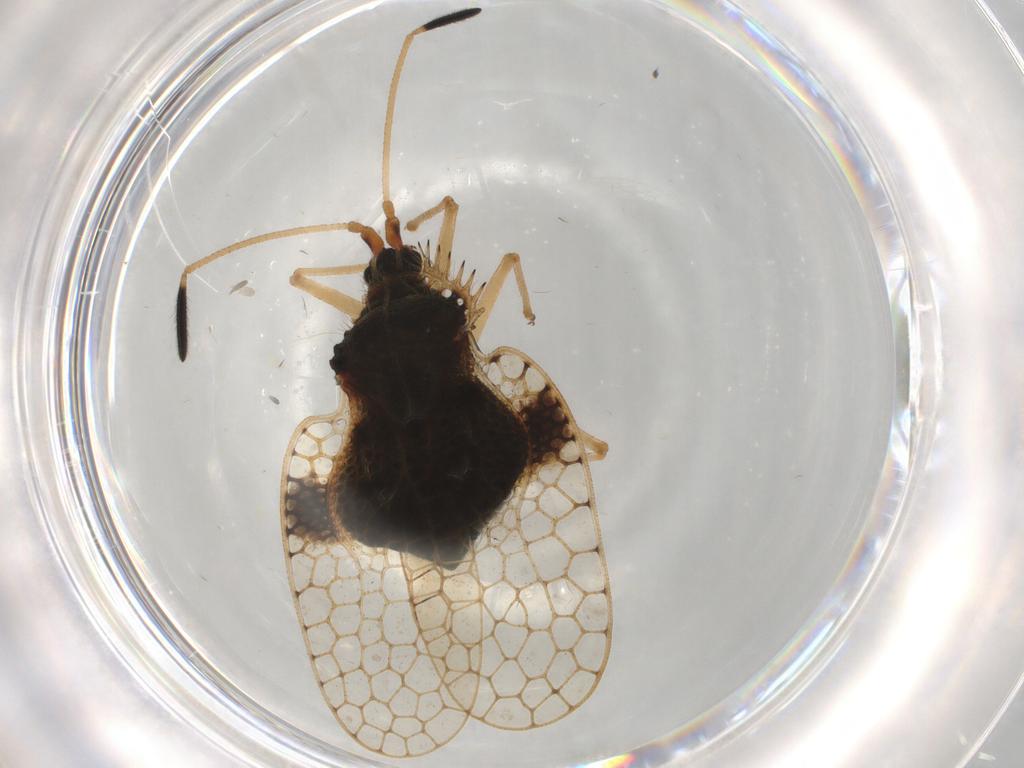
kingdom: Animalia
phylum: Arthropoda
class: Insecta
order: Hemiptera
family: Tingidae
